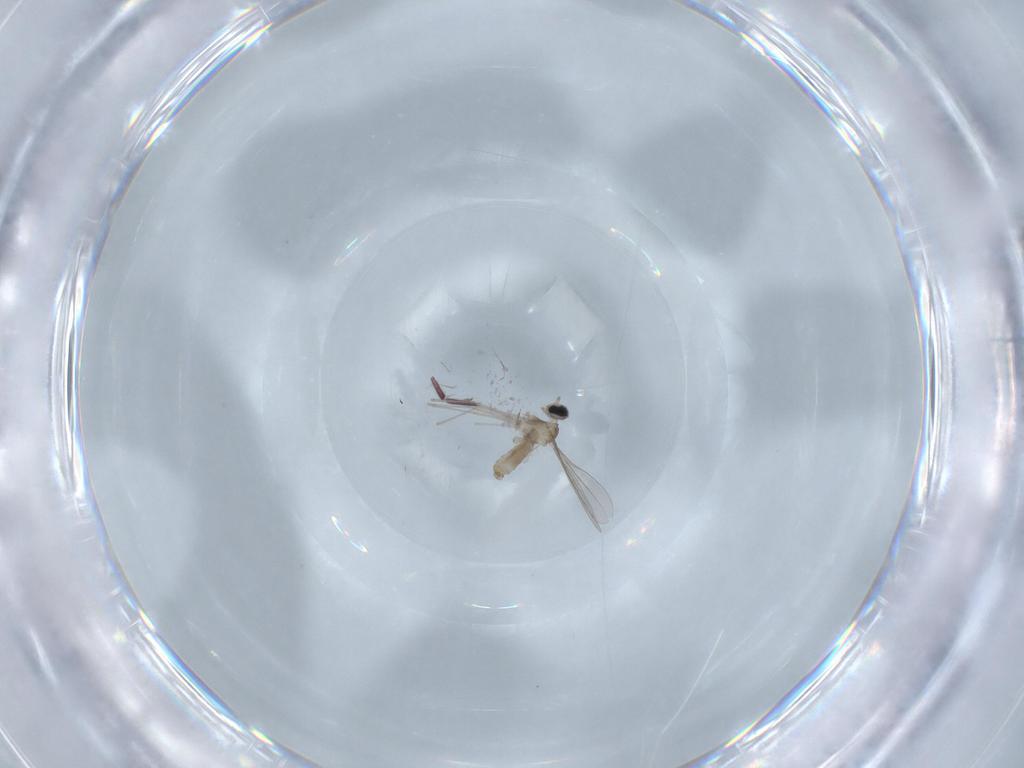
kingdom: Animalia
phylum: Arthropoda
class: Insecta
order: Diptera
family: Cecidomyiidae
